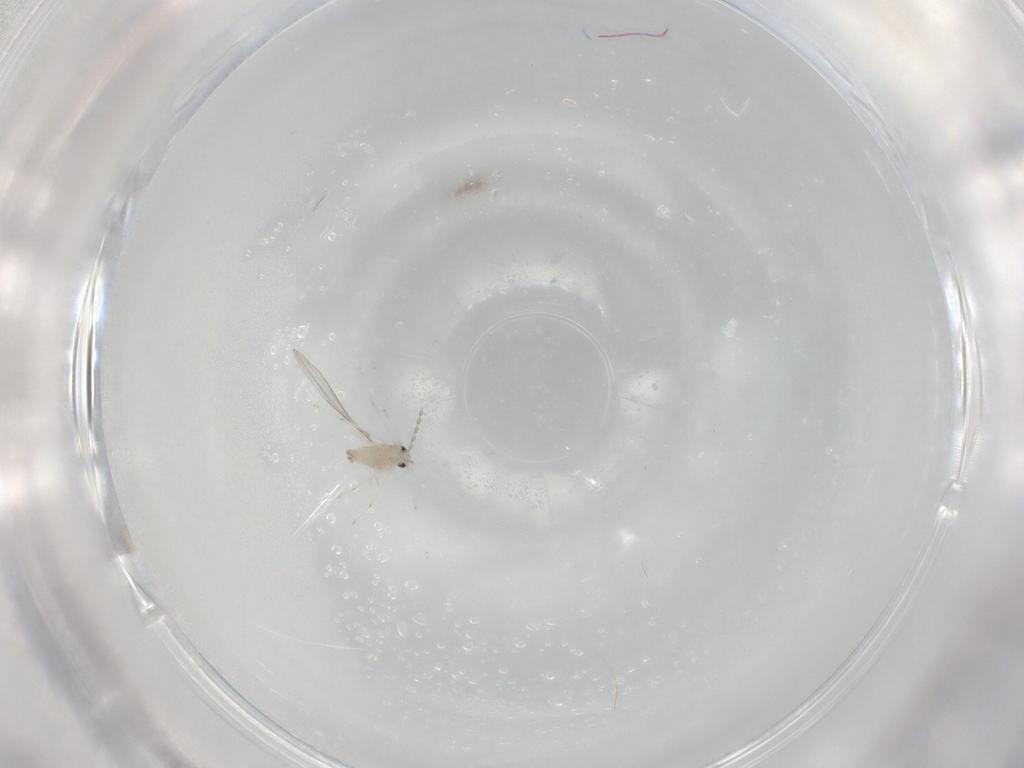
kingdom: Animalia
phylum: Arthropoda
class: Insecta
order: Diptera
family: Cecidomyiidae
